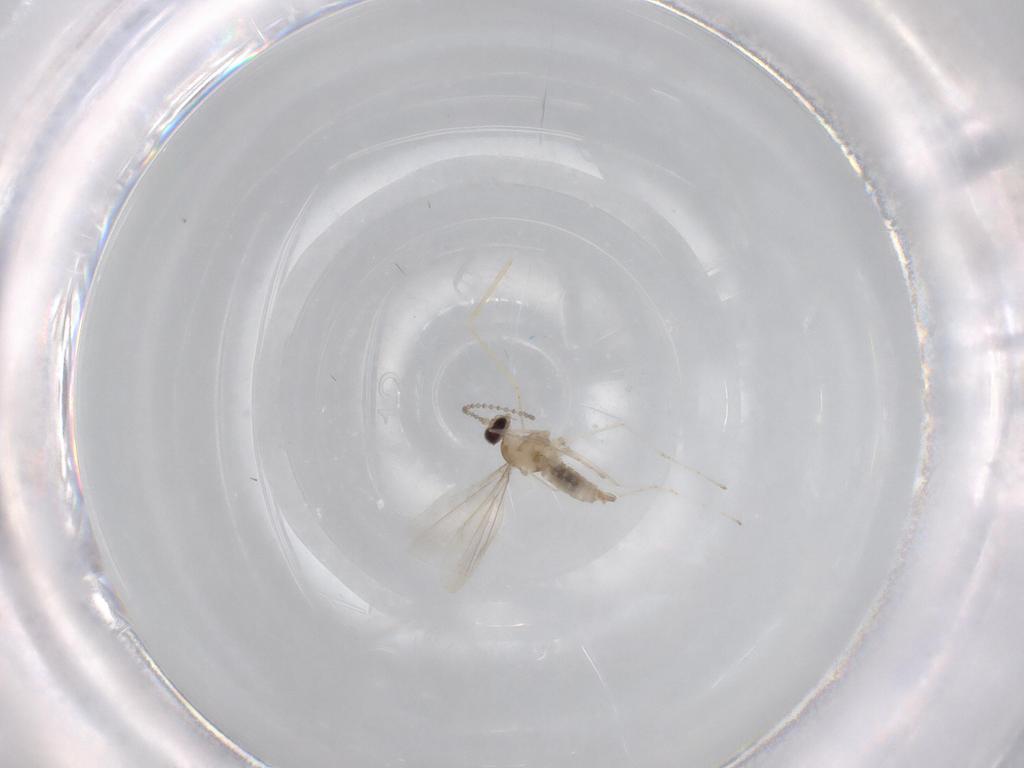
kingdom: Animalia
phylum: Arthropoda
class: Insecta
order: Diptera
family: Cecidomyiidae
